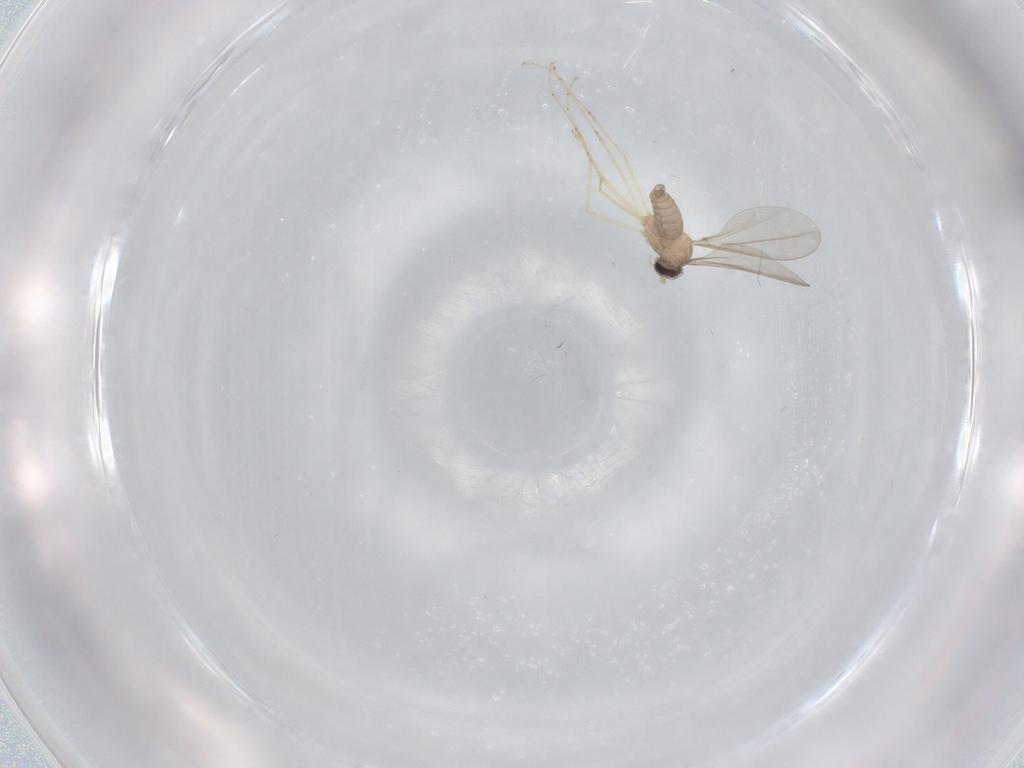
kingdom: Animalia
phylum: Arthropoda
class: Insecta
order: Diptera
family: Cecidomyiidae
